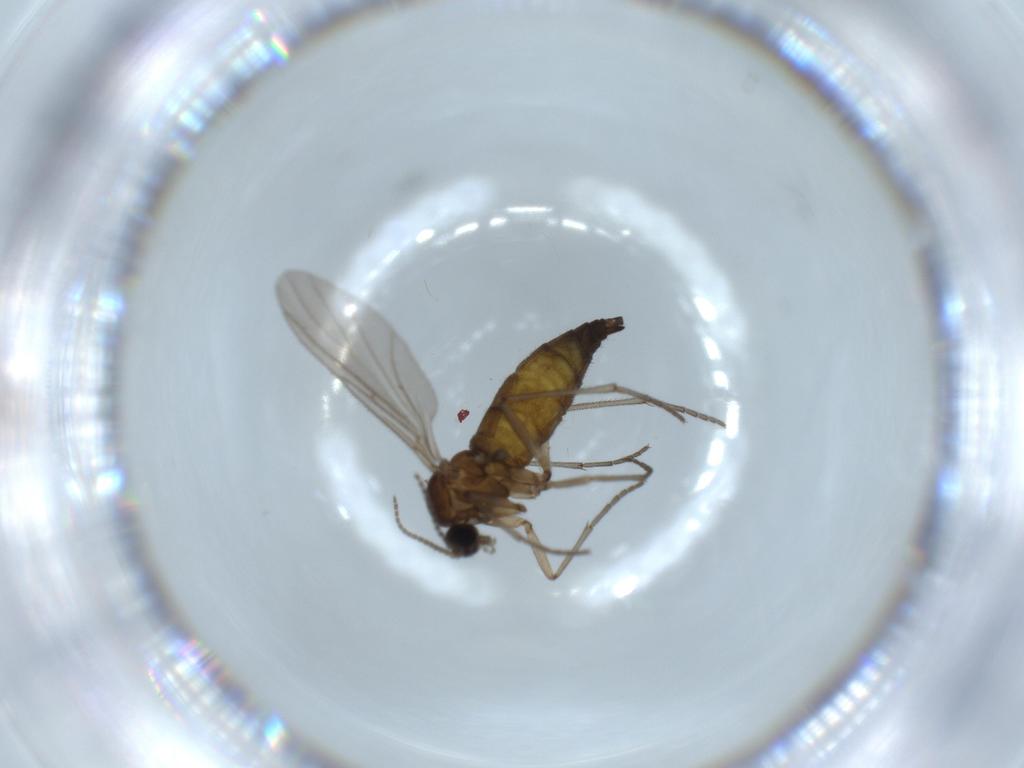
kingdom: Animalia
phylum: Arthropoda
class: Insecta
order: Diptera
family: Sciaridae
